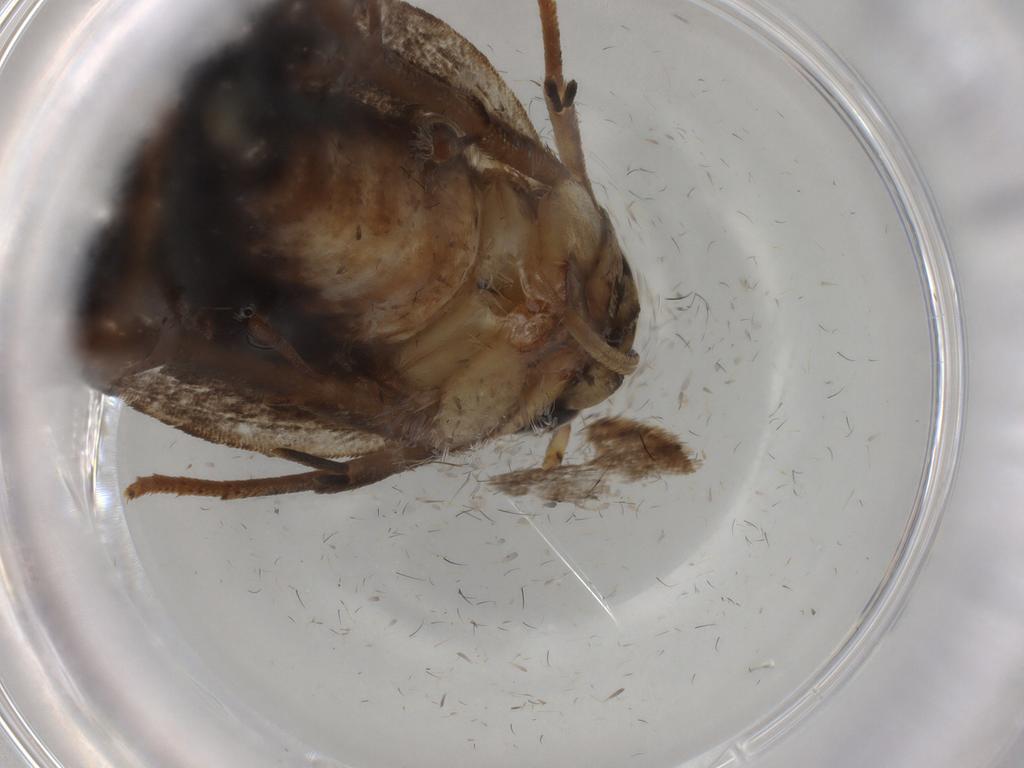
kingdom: Animalia
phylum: Arthropoda
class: Insecta
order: Lepidoptera
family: Gelechiidae
